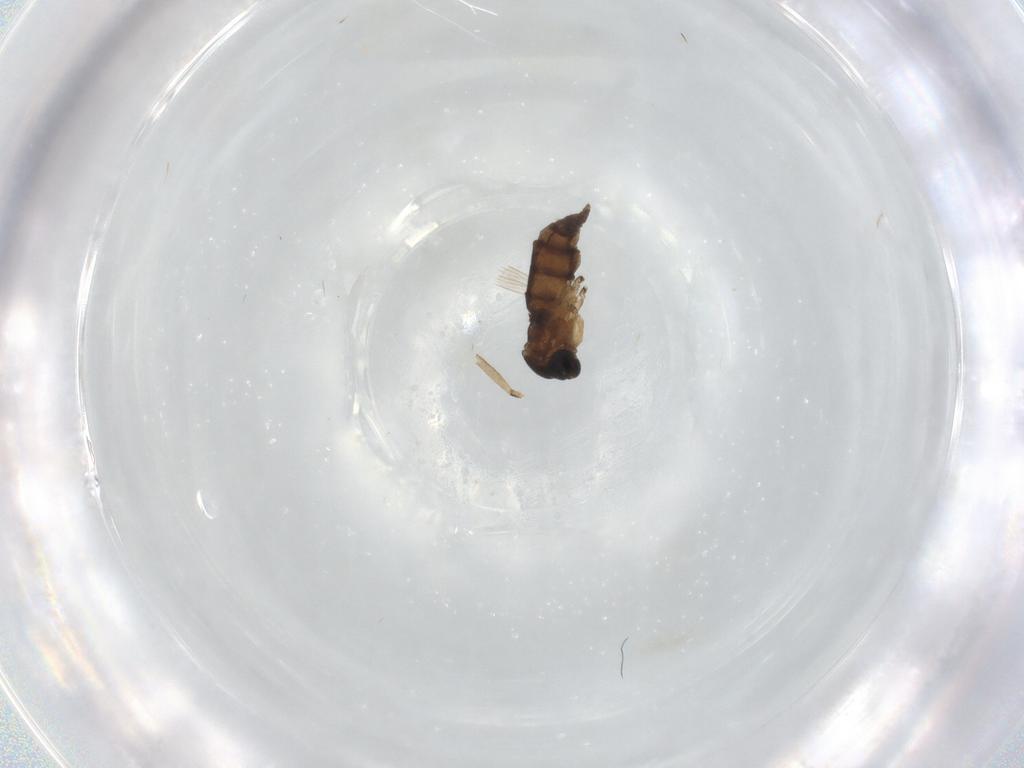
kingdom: Animalia
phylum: Arthropoda
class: Insecta
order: Diptera
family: Sciaridae
